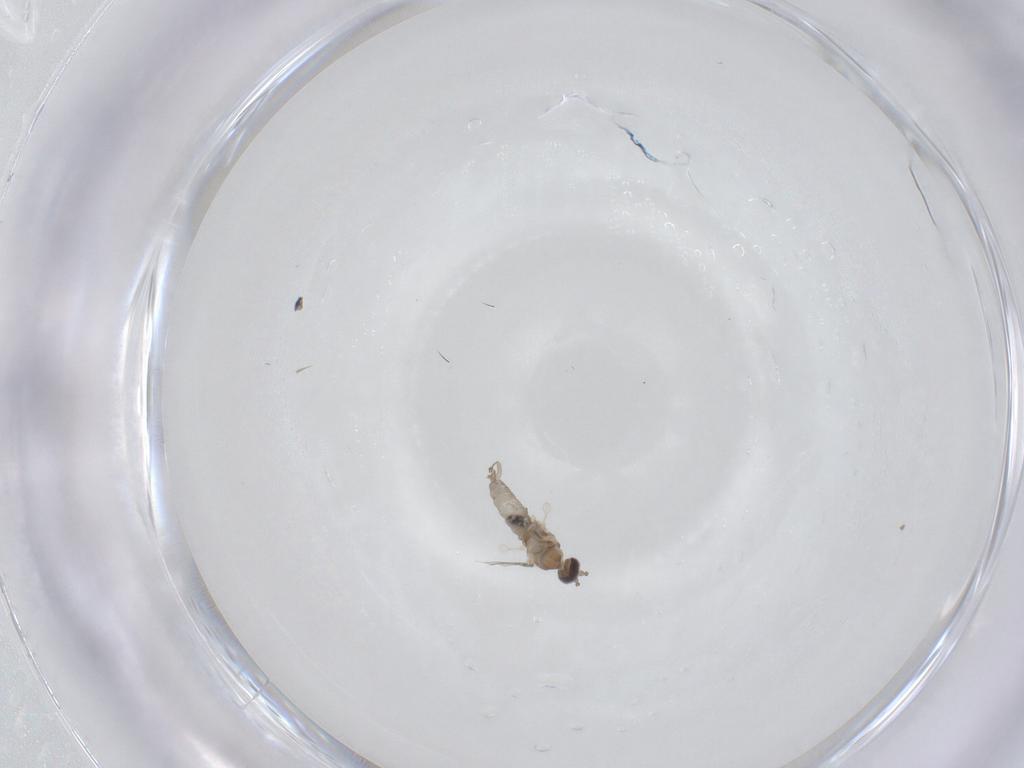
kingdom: Animalia
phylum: Arthropoda
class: Insecta
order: Diptera
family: Cecidomyiidae
